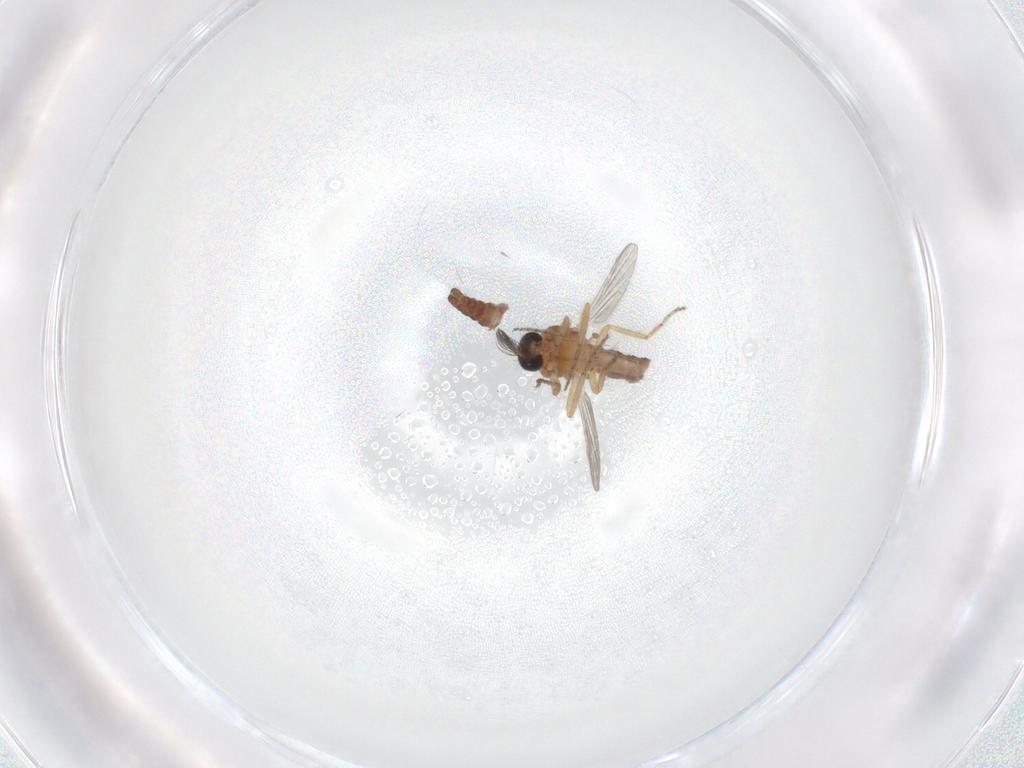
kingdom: Animalia
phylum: Arthropoda
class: Insecta
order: Diptera
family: Ceratopogonidae
